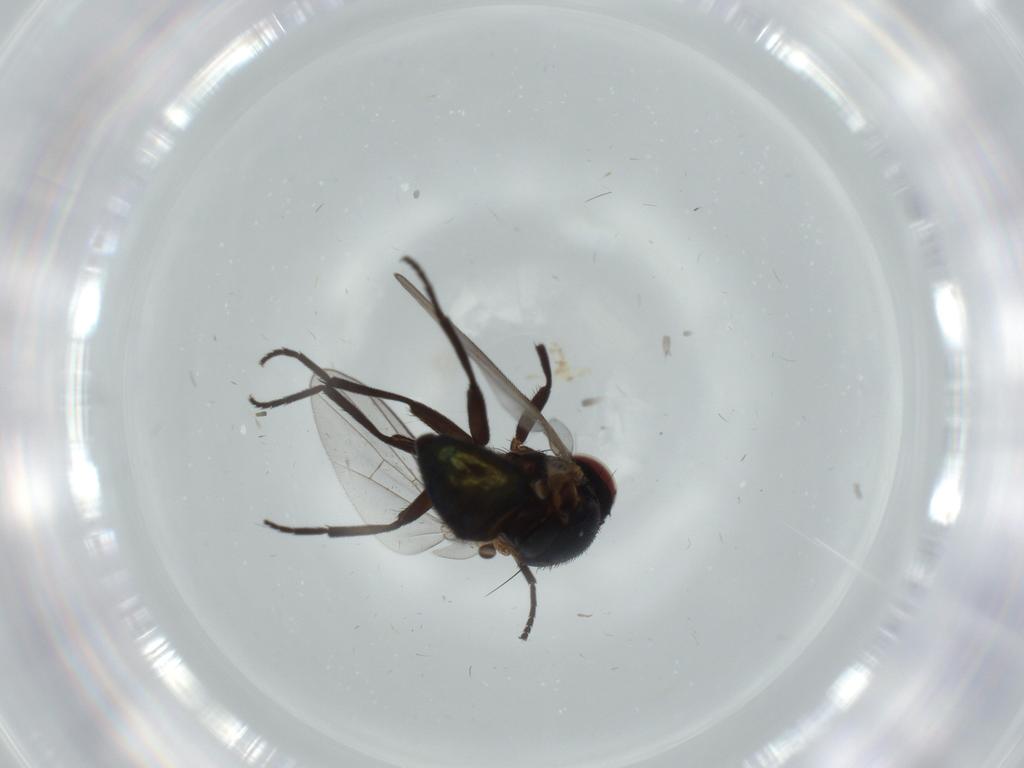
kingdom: Animalia
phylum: Arthropoda
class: Insecta
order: Diptera
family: Agromyzidae
